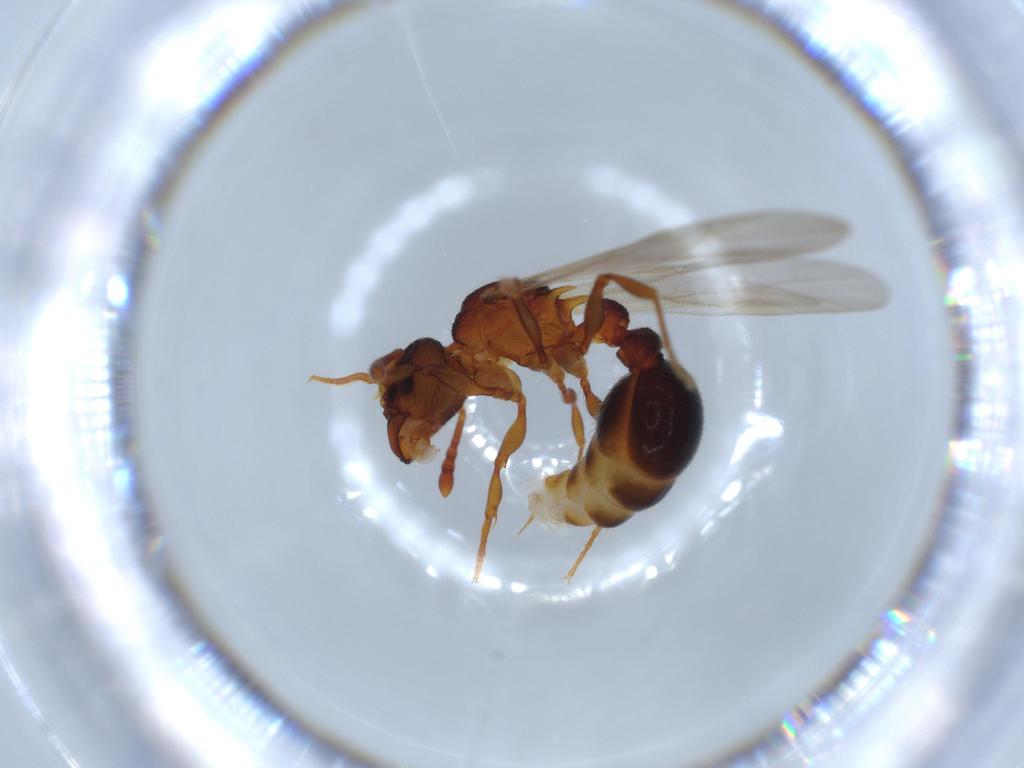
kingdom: Animalia
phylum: Arthropoda
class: Insecta
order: Hymenoptera
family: Formicidae
